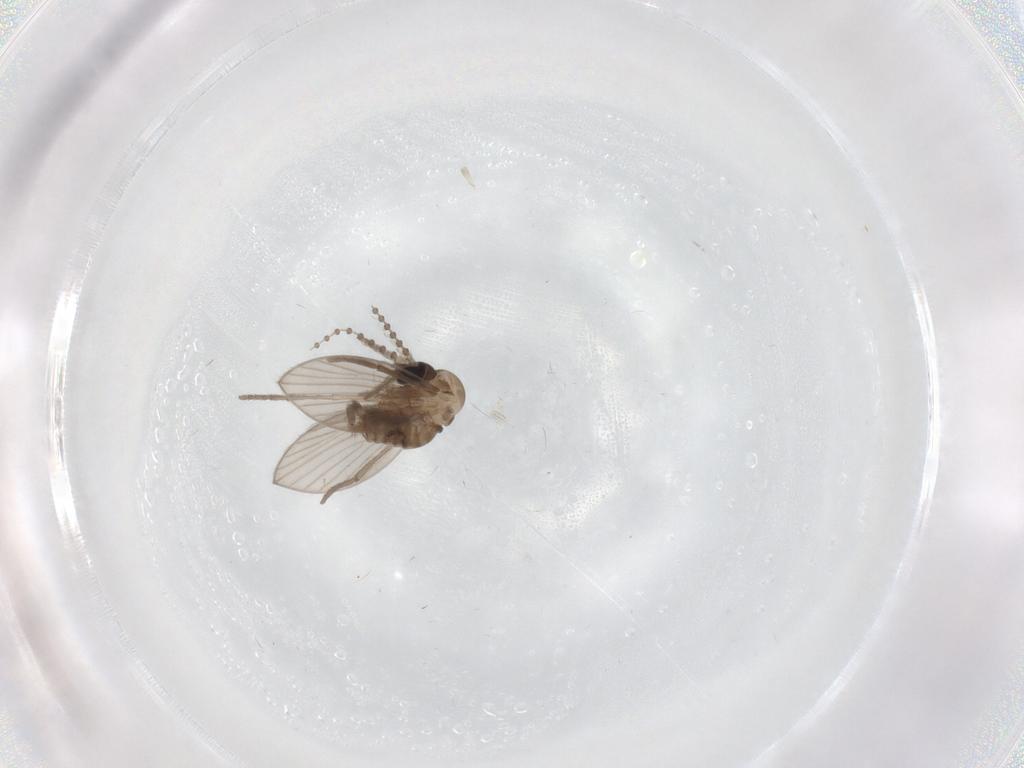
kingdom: Animalia
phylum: Arthropoda
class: Insecta
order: Diptera
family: Psychodidae
